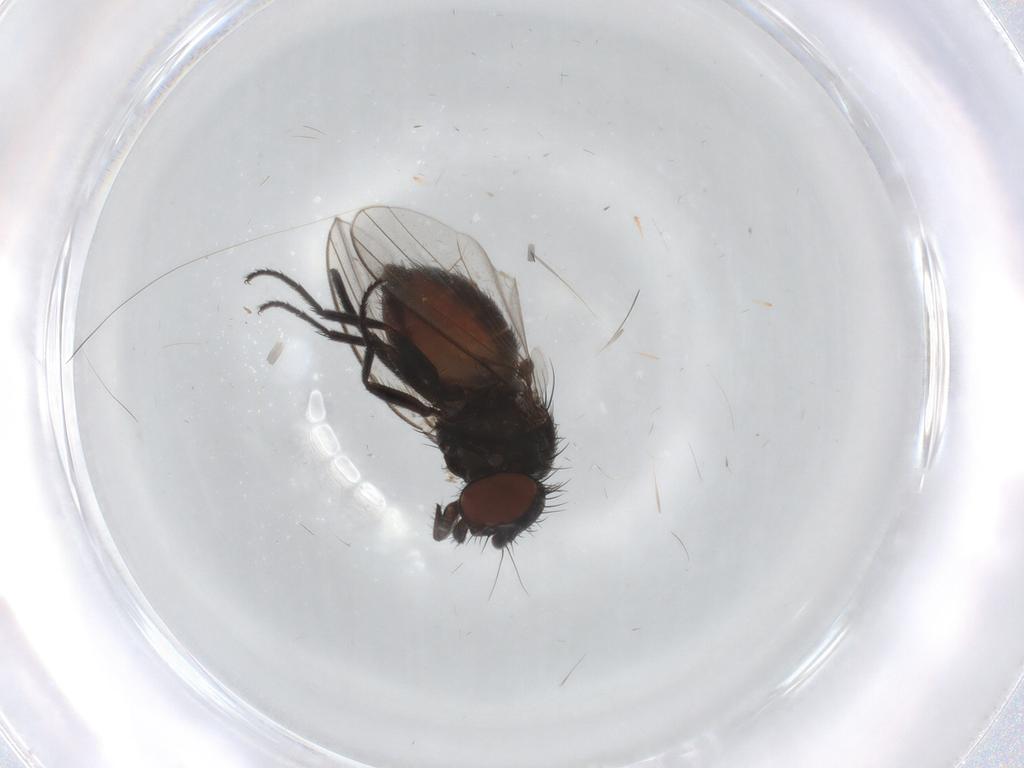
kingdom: Animalia
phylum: Arthropoda
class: Insecta
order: Diptera
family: Milichiidae
